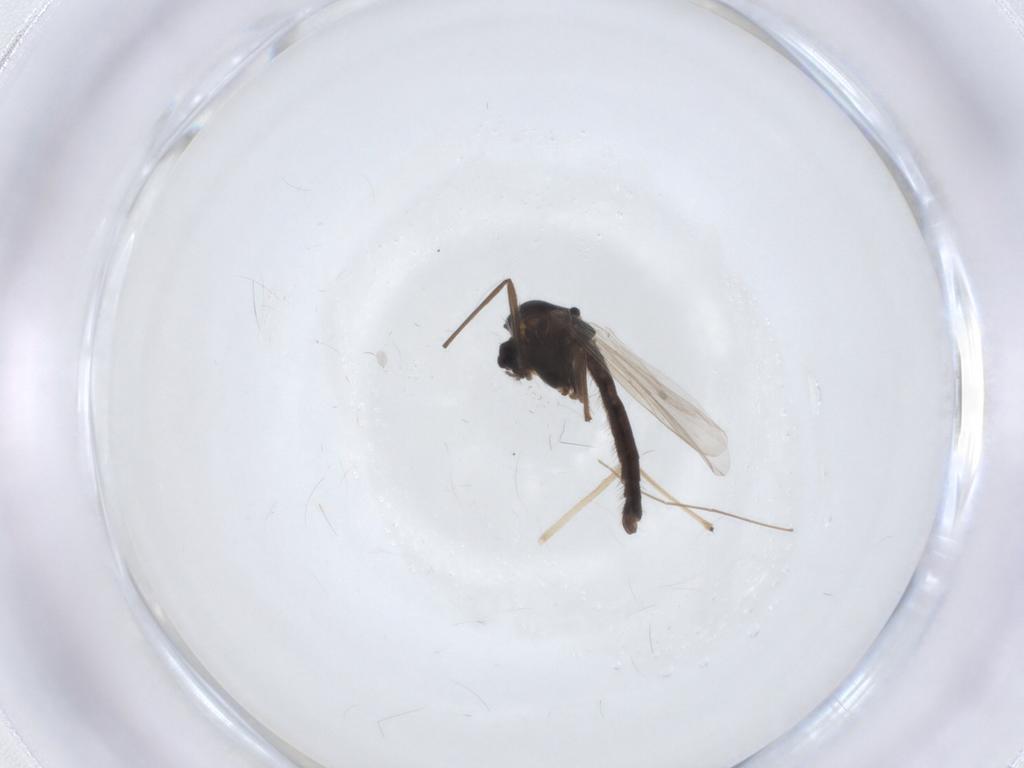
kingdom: Animalia
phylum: Arthropoda
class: Insecta
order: Diptera
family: Chironomidae
